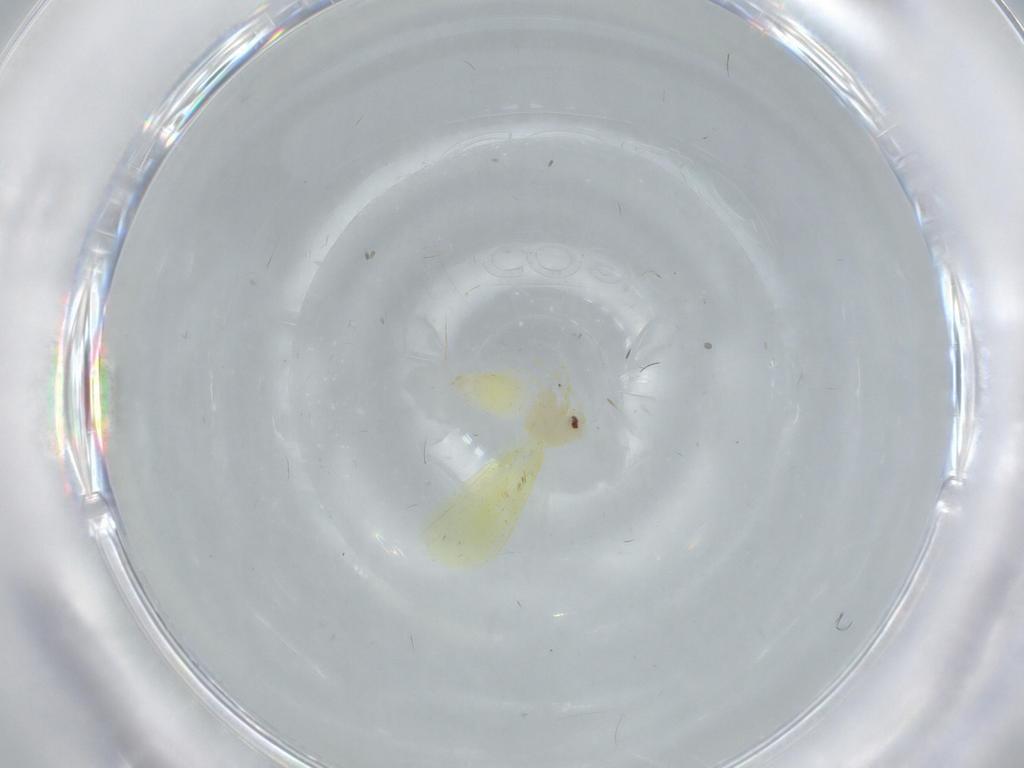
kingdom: Animalia
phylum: Arthropoda
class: Insecta
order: Hemiptera
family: Aleyrodidae
